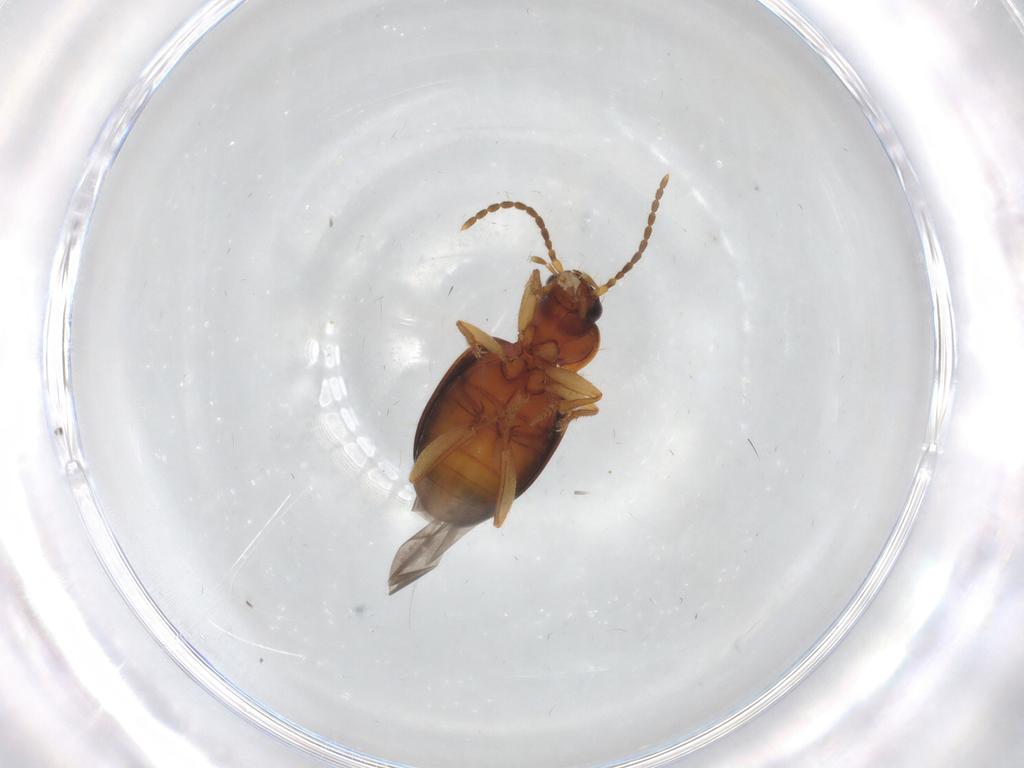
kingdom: Animalia
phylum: Arthropoda
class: Insecta
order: Coleoptera
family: Carabidae
